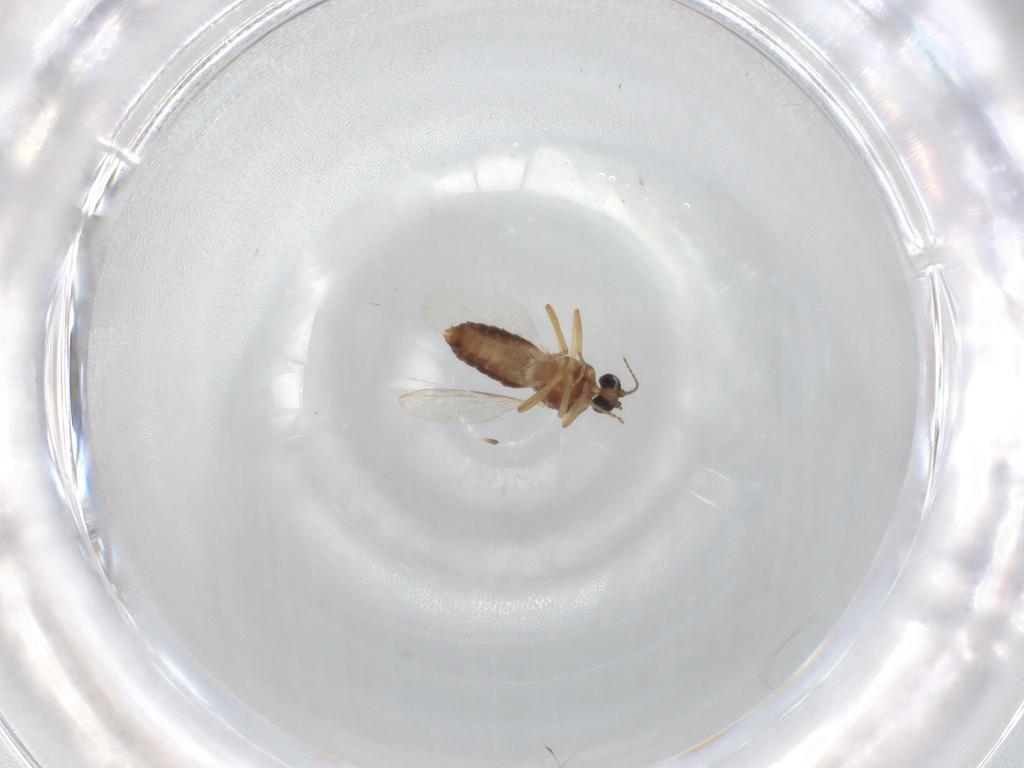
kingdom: Animalia
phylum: Arthropoda
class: Insecta
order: Diptera
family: Ceratopogonidae
